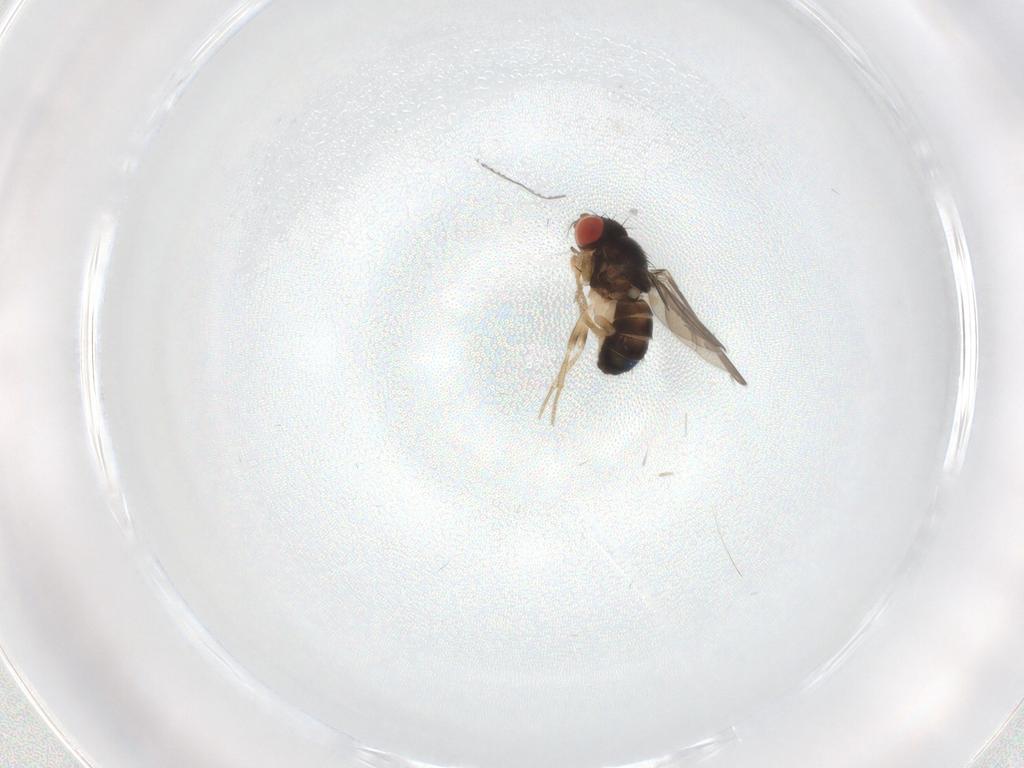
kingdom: Animalia
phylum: Arthropoda
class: Insecta
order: Diptera
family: Drosophilidae
